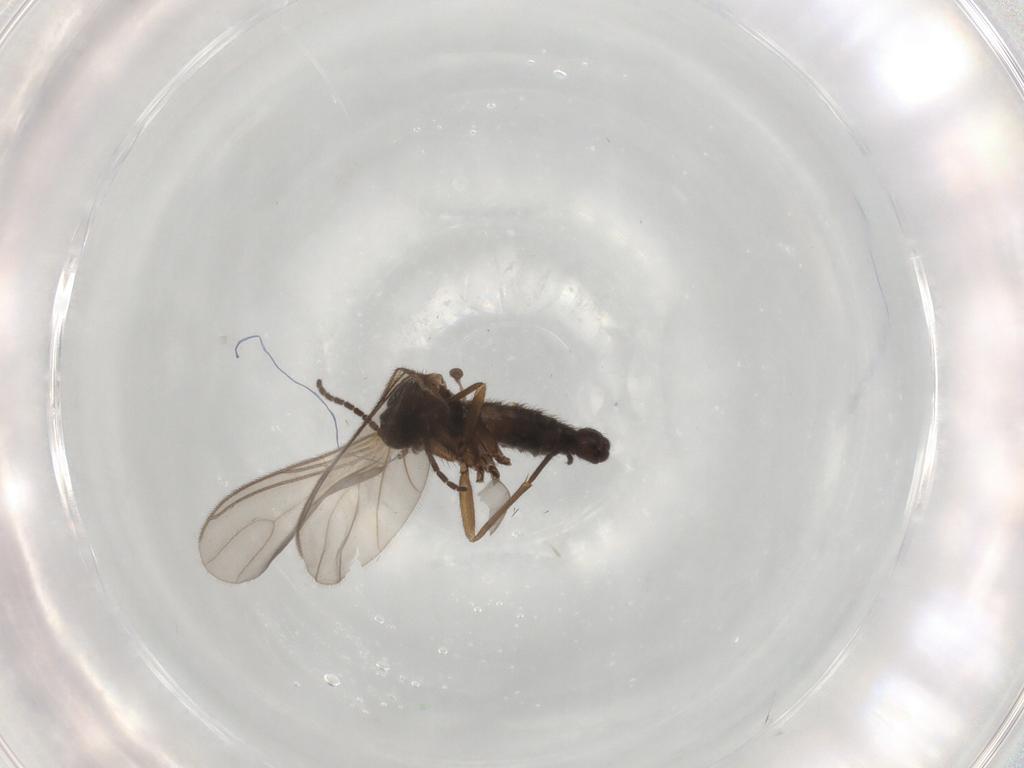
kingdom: Animalia
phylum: Arthropoda
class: Insecta
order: Diptera
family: Sciaridae
